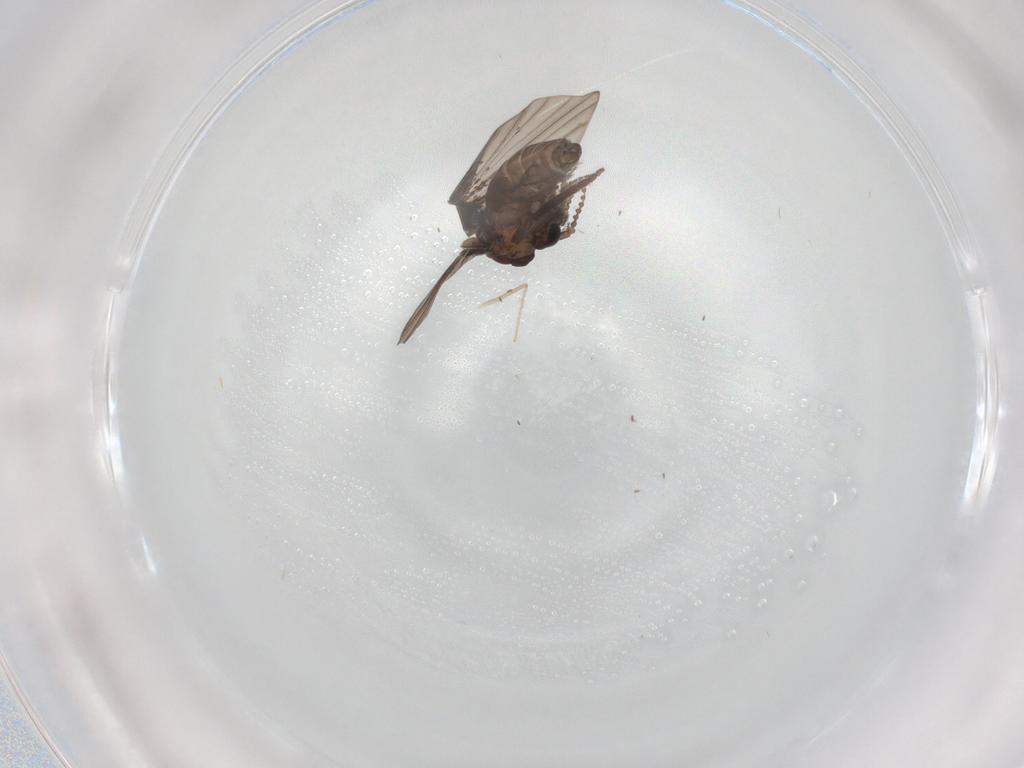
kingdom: Animalia
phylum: Arthropoda
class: Insecta
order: Diptera
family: Psychodidae
